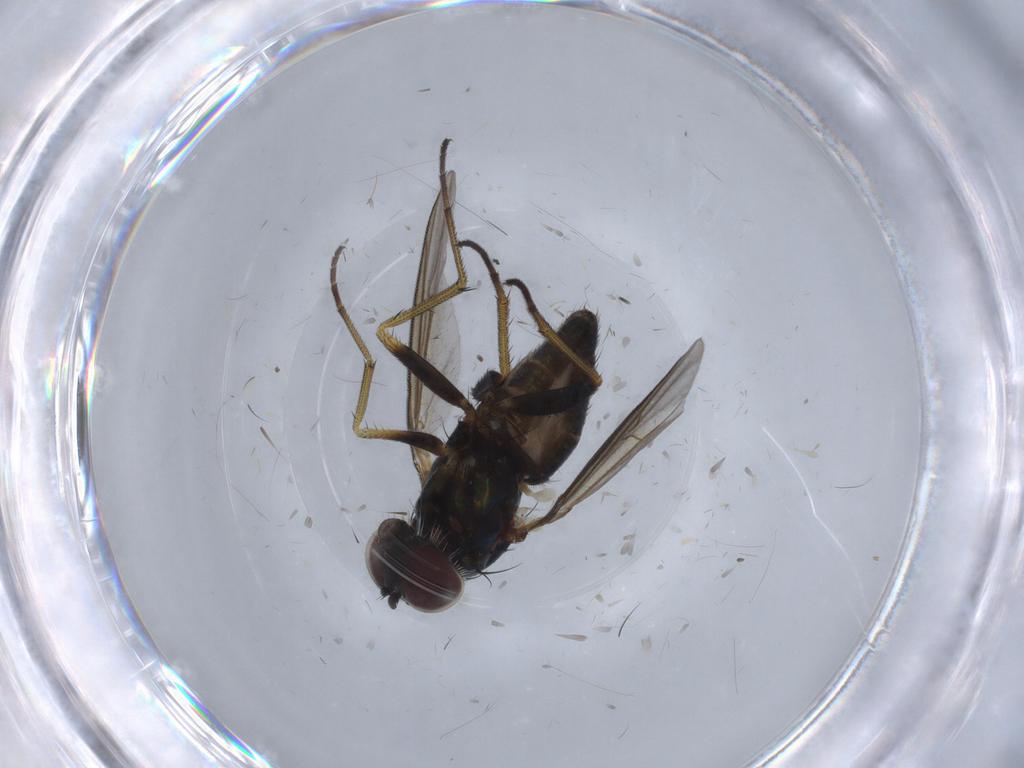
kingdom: Animalia
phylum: Arthropoda
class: Insecta
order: Diptera
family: Dolichopodidae
